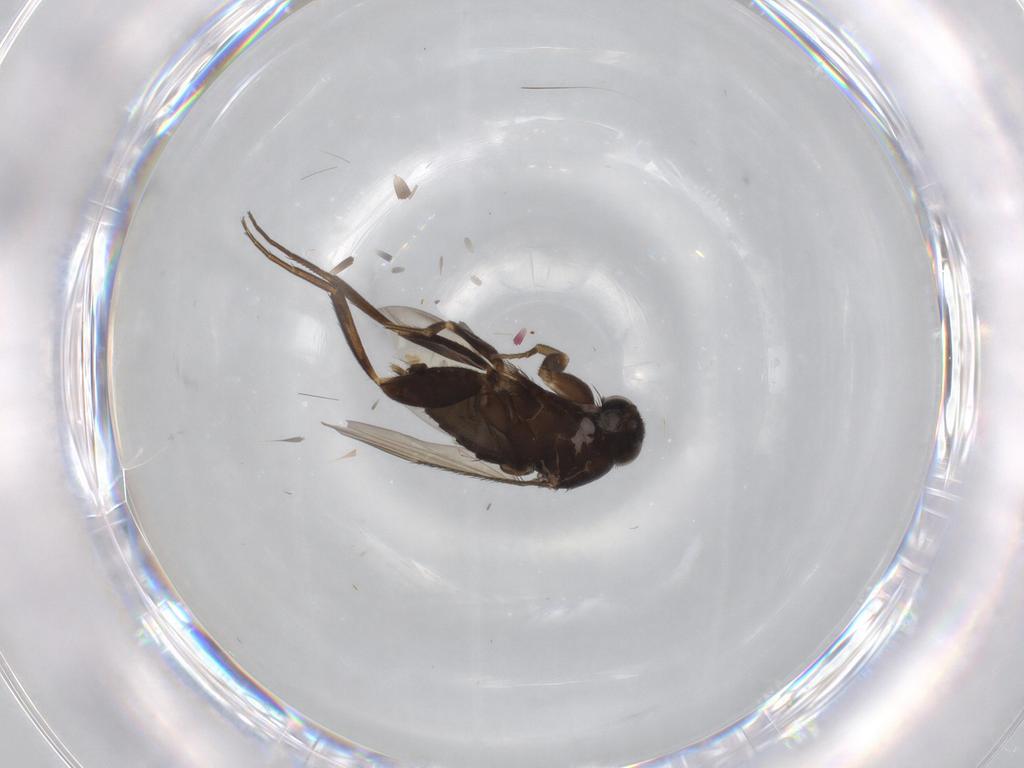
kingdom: Animalia
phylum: Arthropoda
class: Insecta
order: Diptera
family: Phoridae
